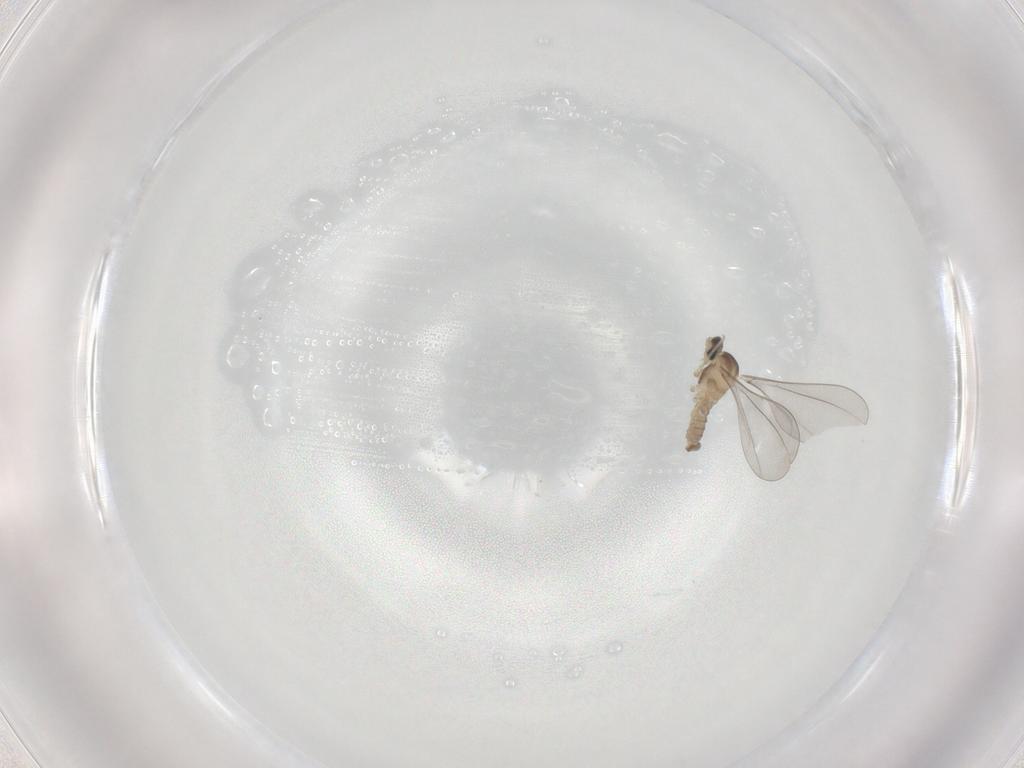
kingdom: Animalia
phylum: Arthropoda
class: Insecta
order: Diptera
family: Cecidomyiidae
